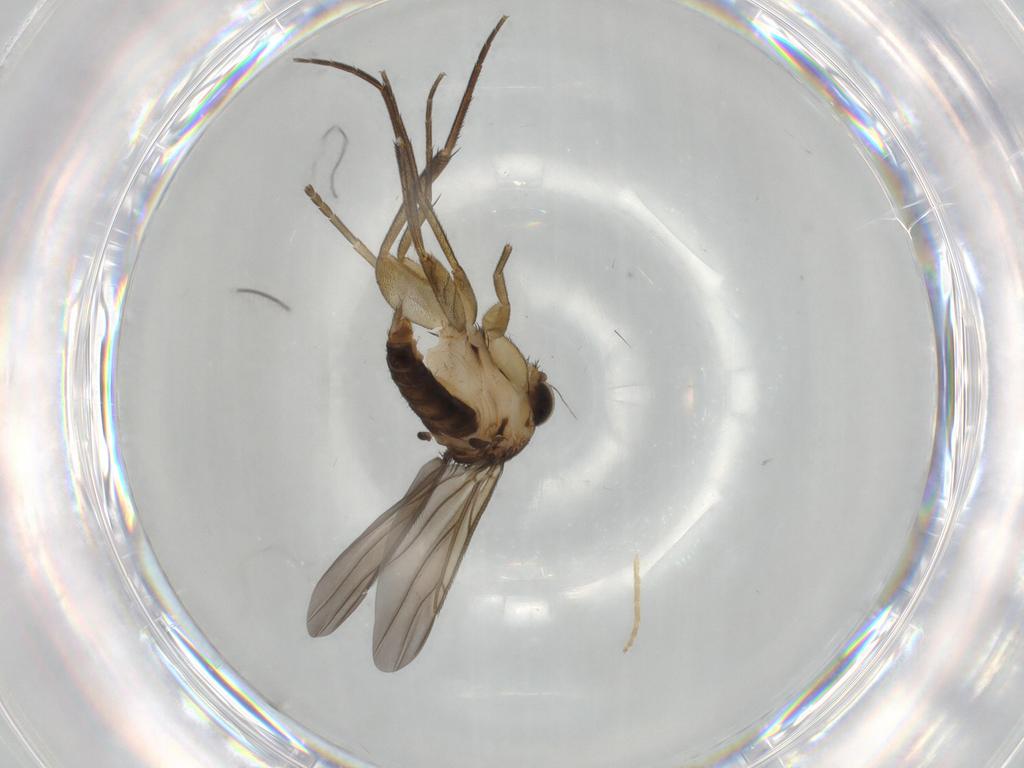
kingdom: Animalia
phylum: Arthropoda
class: Insecta
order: Diptera
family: Phoridae
